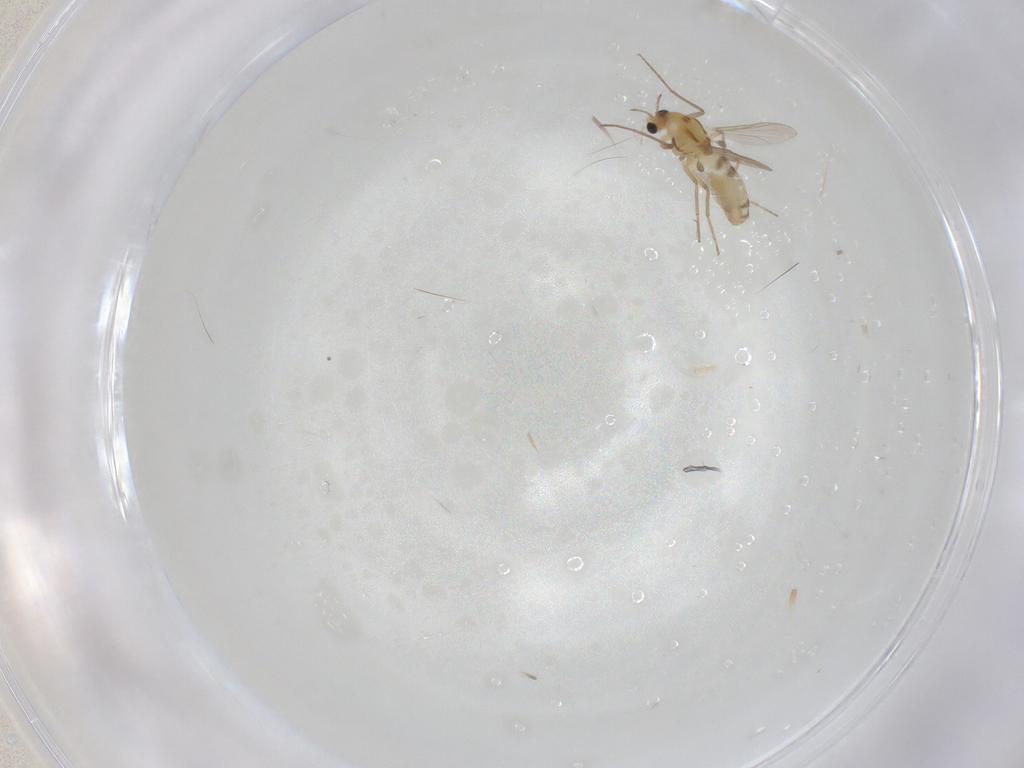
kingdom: Animalia
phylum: Arthropoda
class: Insecta
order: Diptera
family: Chironomidae
